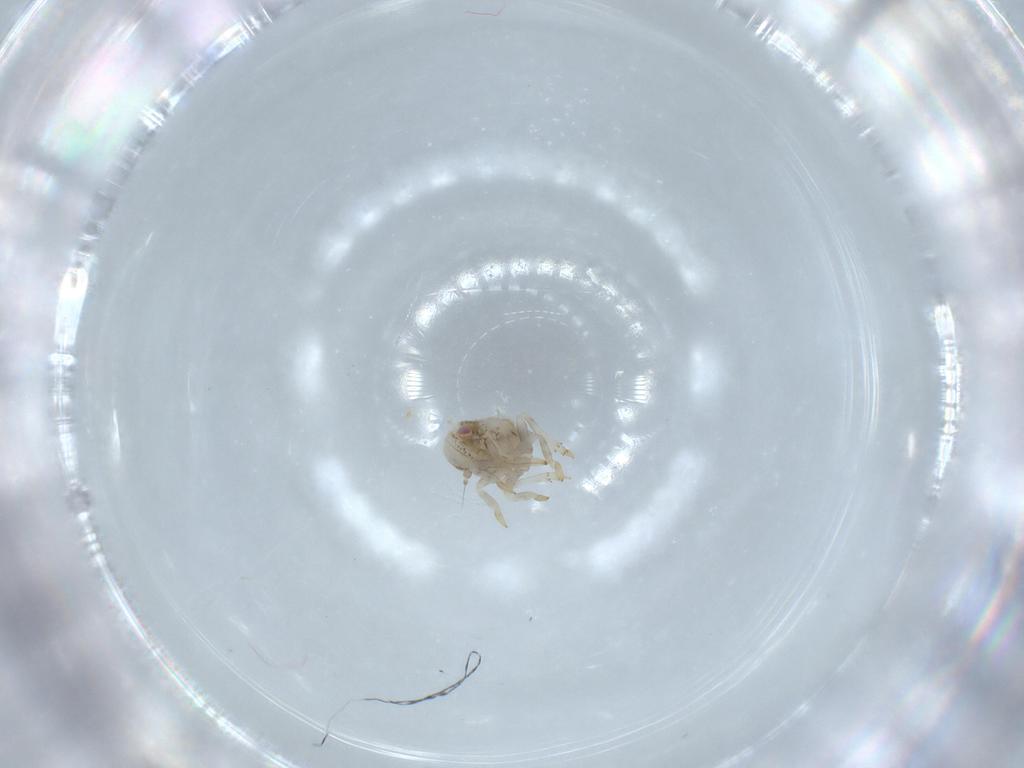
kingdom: Animalia
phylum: Arthropoda
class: Insecta
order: Hemiptera
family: Acanaloniidae
